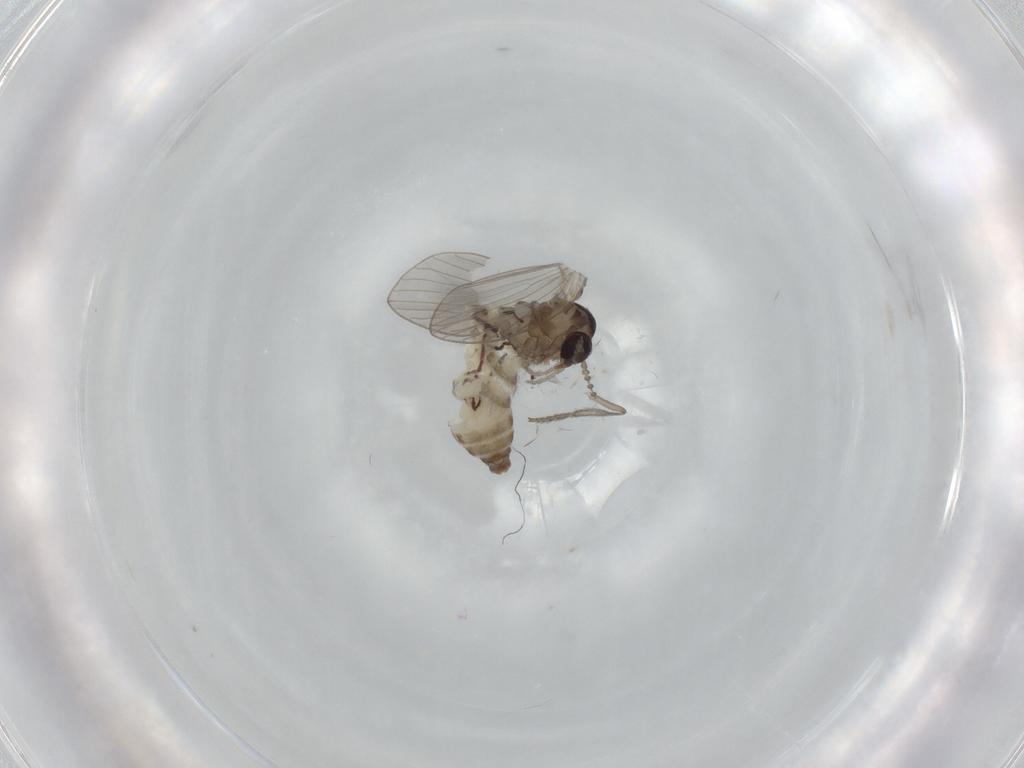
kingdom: Animalia
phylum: Arthropoda
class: Insecta
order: Diptera
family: Psychodidae
